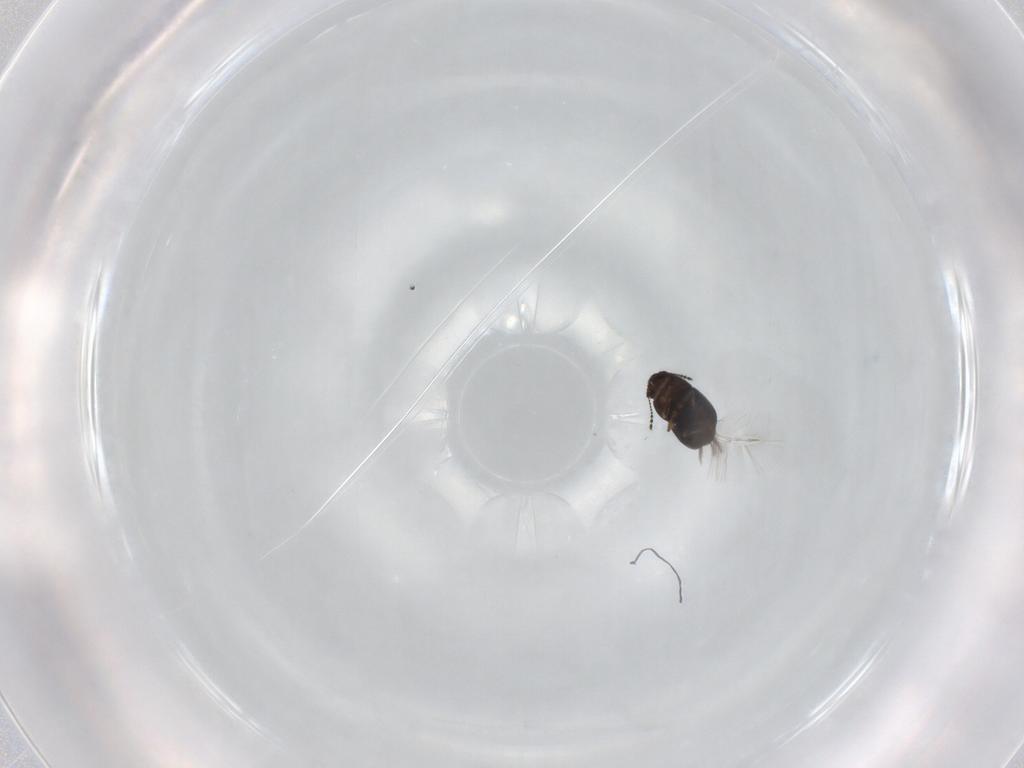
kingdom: Animalia
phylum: Arthropoda
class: Insecta
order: Coleoptera
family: Ptiliidae
